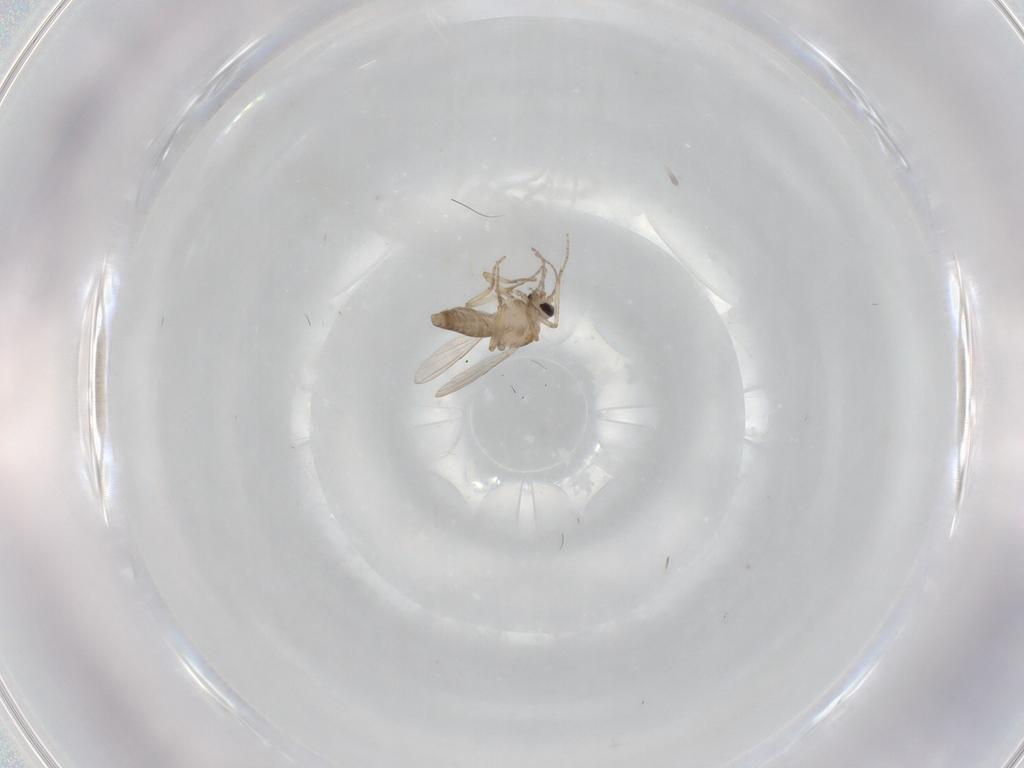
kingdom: Animalia
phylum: Arthropoda
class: Insecta
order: Diptera
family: Ceratopogonidae
